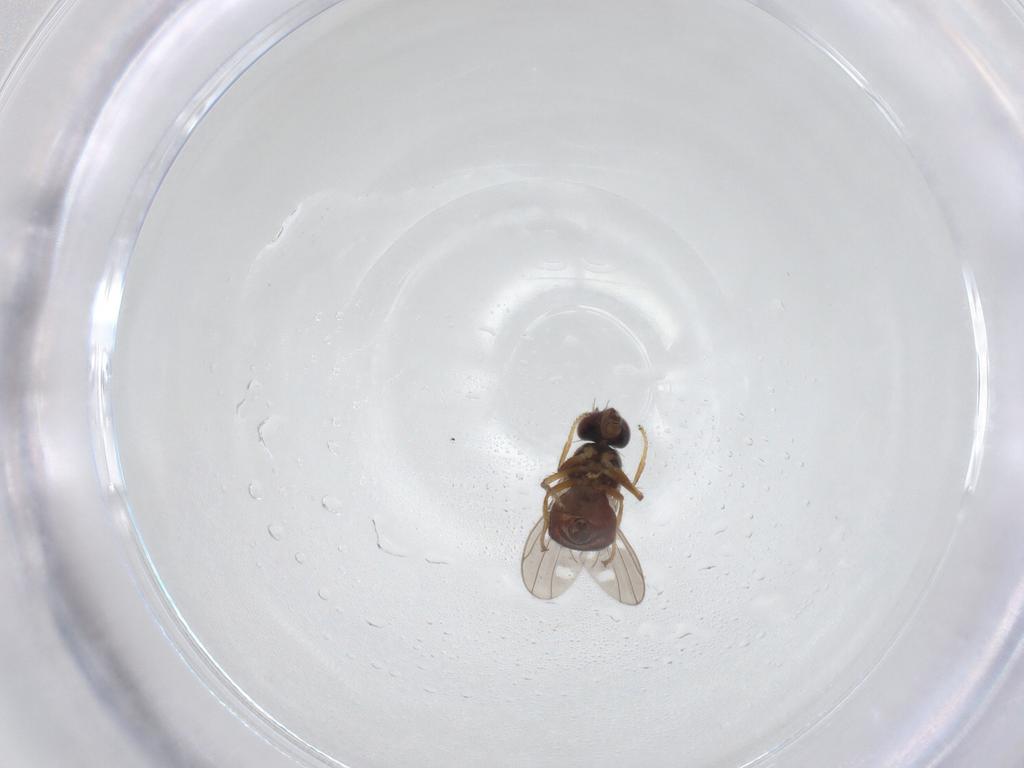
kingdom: Animalia
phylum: Arthropoda
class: Insecta
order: Diptera
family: Ephydridae
